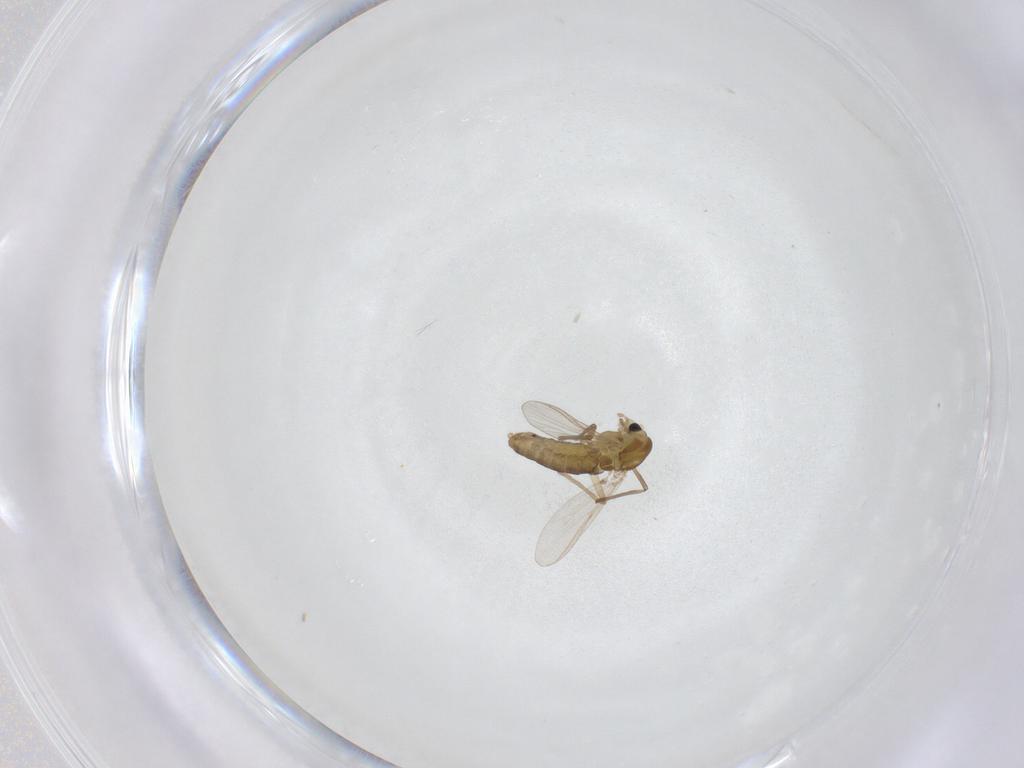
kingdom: Animalia
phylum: Arthropoda
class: Insecta
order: Diptera
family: Chironomidae
